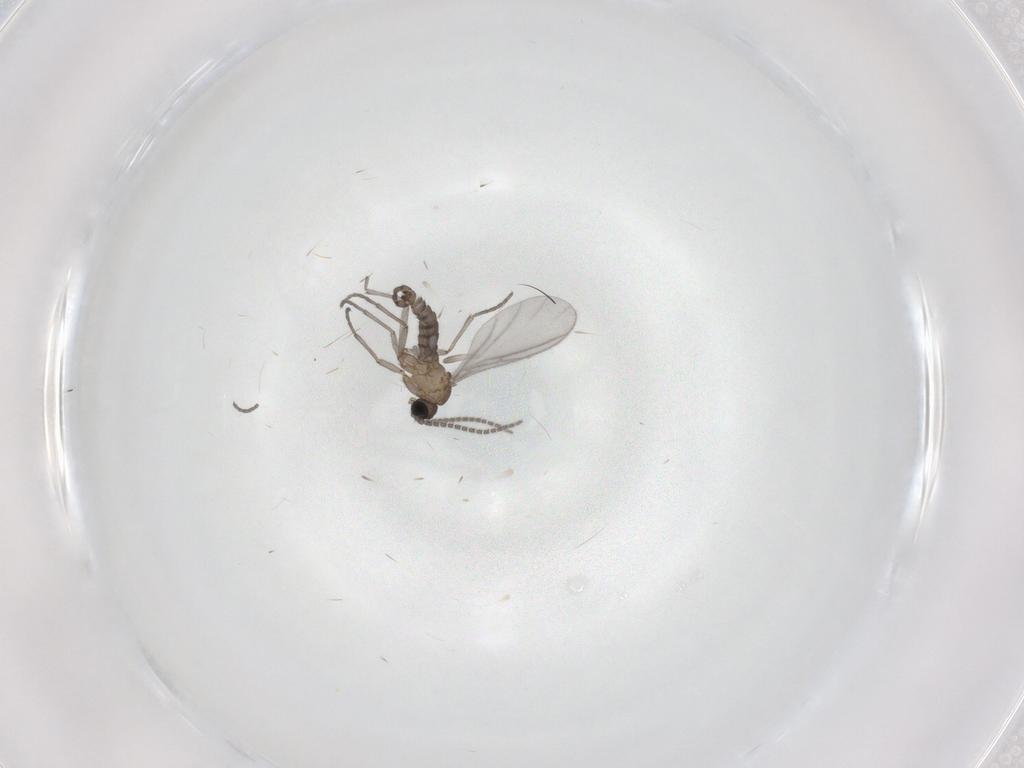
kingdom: Animalia
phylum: Arthropoda
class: Insecta
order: Diptera
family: Sciaridae
